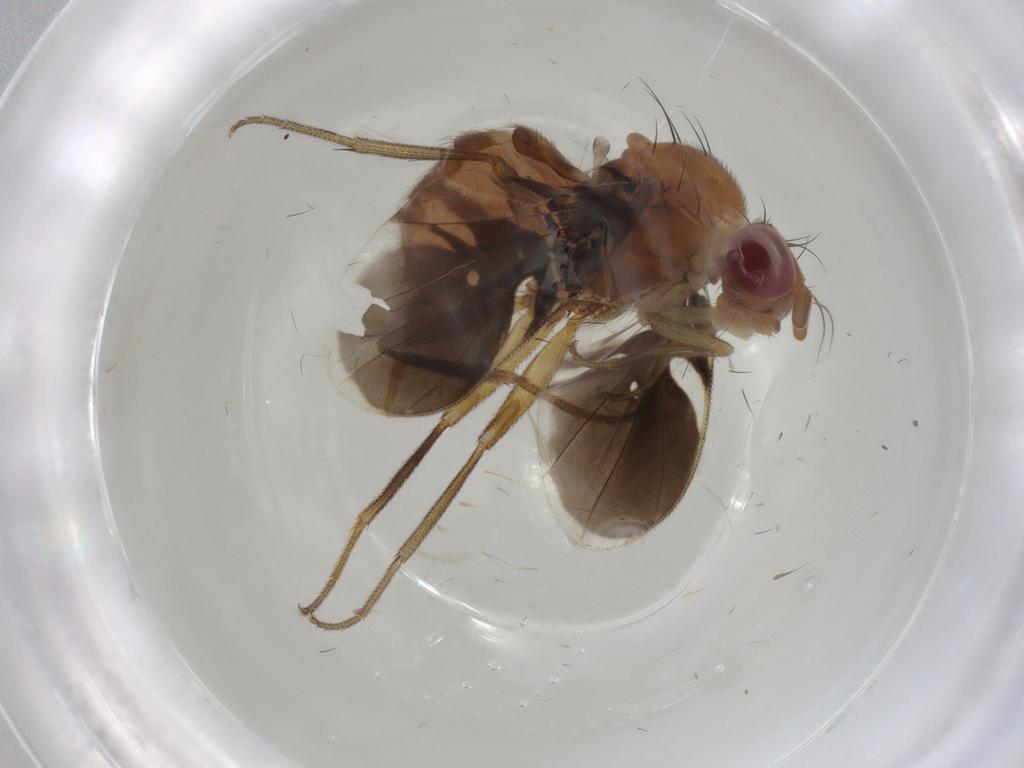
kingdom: Animalia
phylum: Arthropoda
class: Insecta
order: Diptera
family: Ulidiidae
